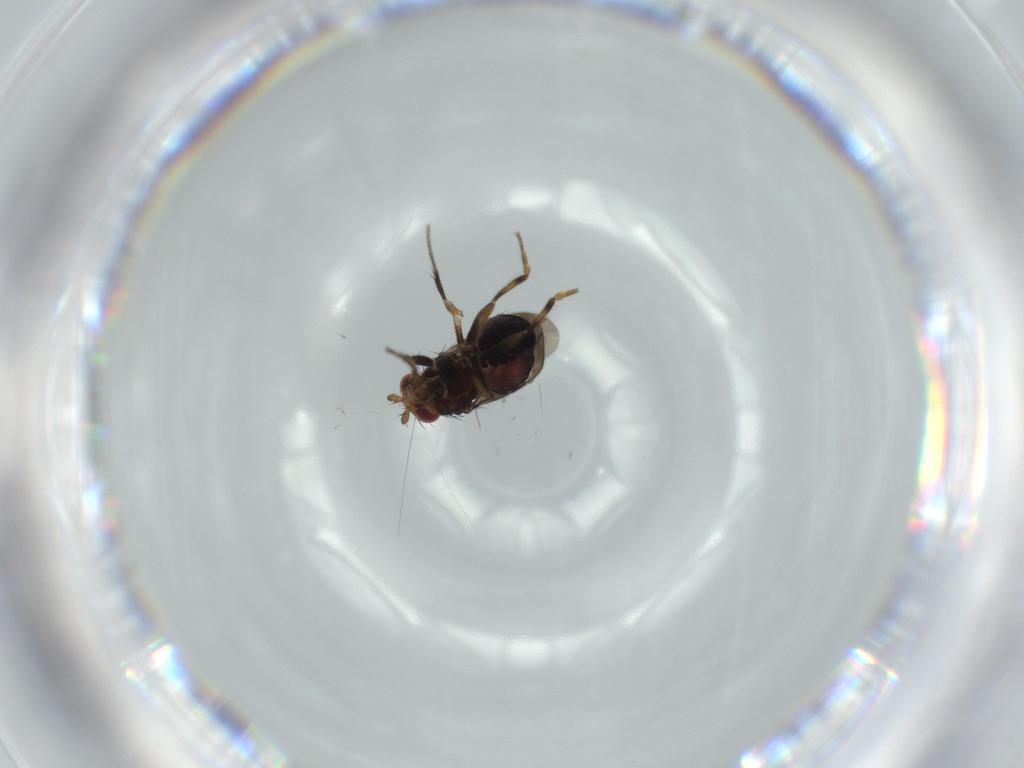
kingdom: Animalia
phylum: Arthropoda
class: Insecta
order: Diptera
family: Sphaeroceridae
